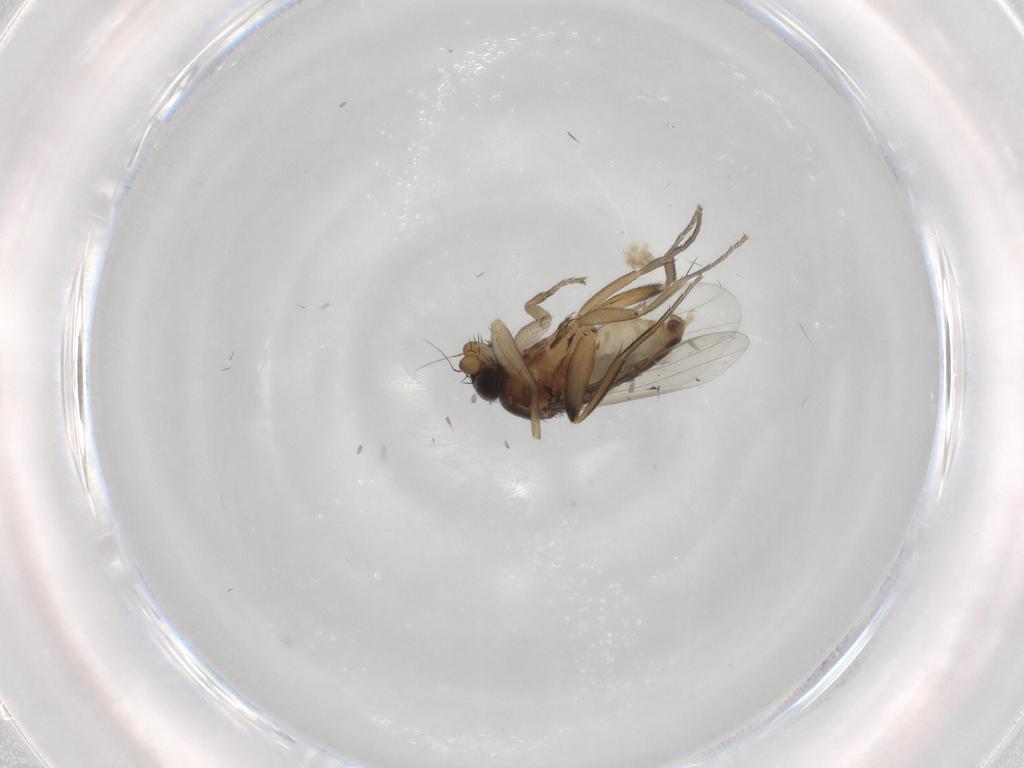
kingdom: Animalia
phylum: Arthropoda
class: Insecta
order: Diptera
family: Phoridae
